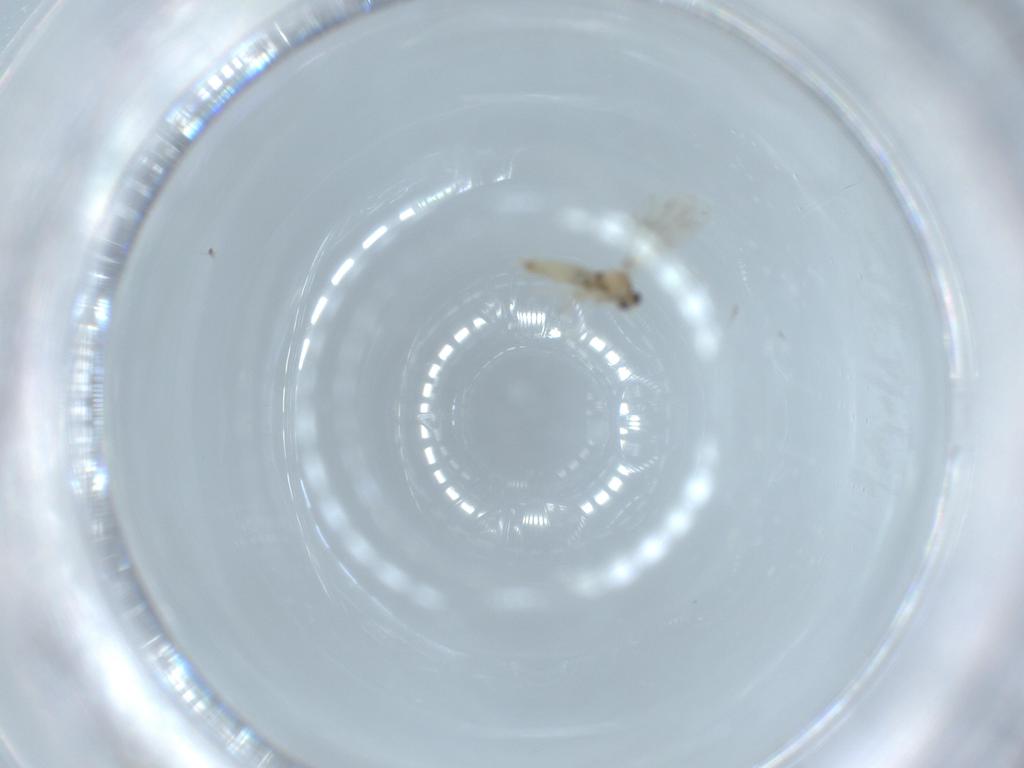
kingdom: Animalia
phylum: Arthropoda
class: Insecta
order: Diptera
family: Cecidomyiidae
